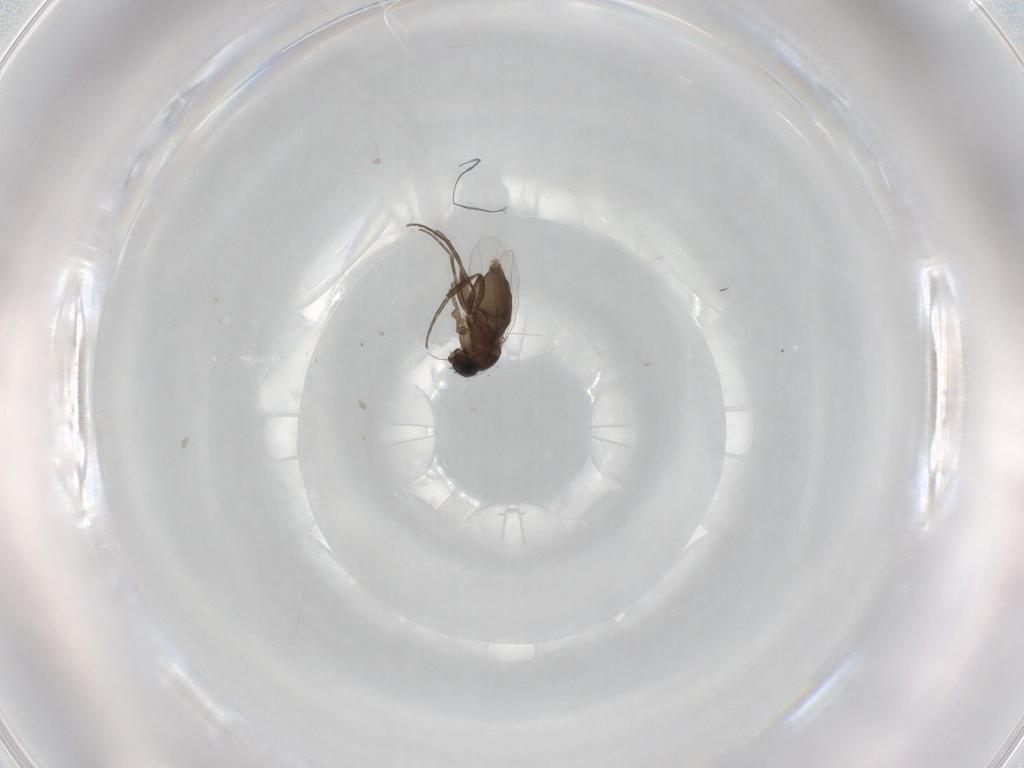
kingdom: Animalia
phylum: Arthropoda
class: Insecta
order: Diptera
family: Phoridae
